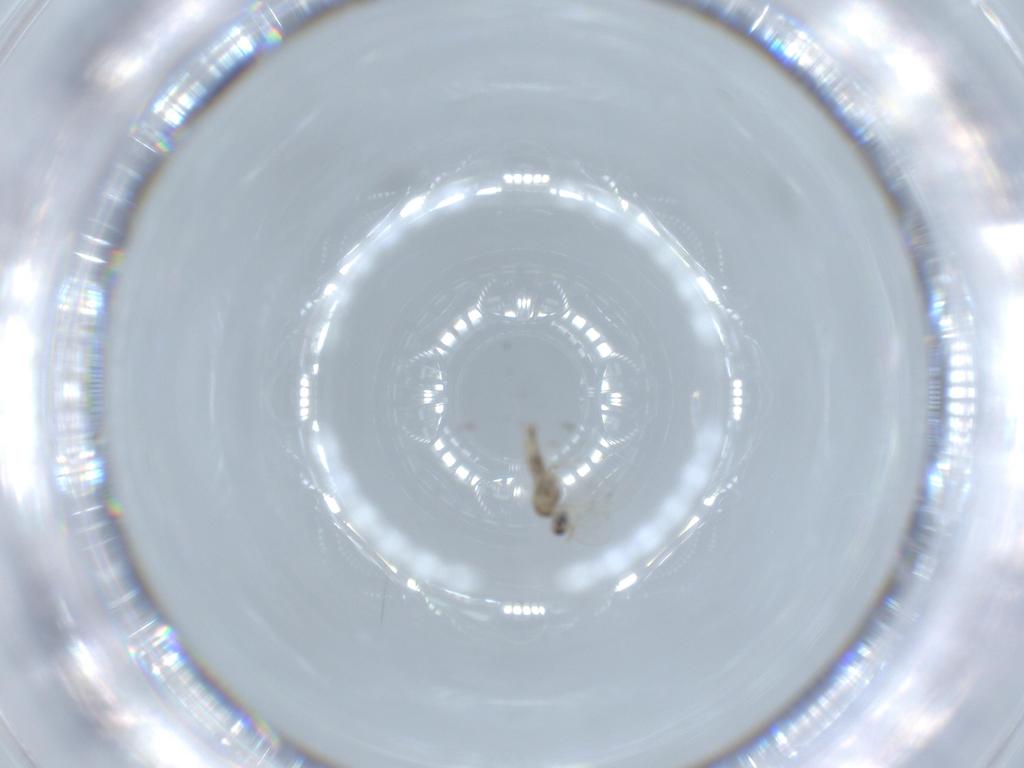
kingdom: Animalia
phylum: Arthropoda
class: Insecta
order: Diptera
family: Cecidomyiidae
